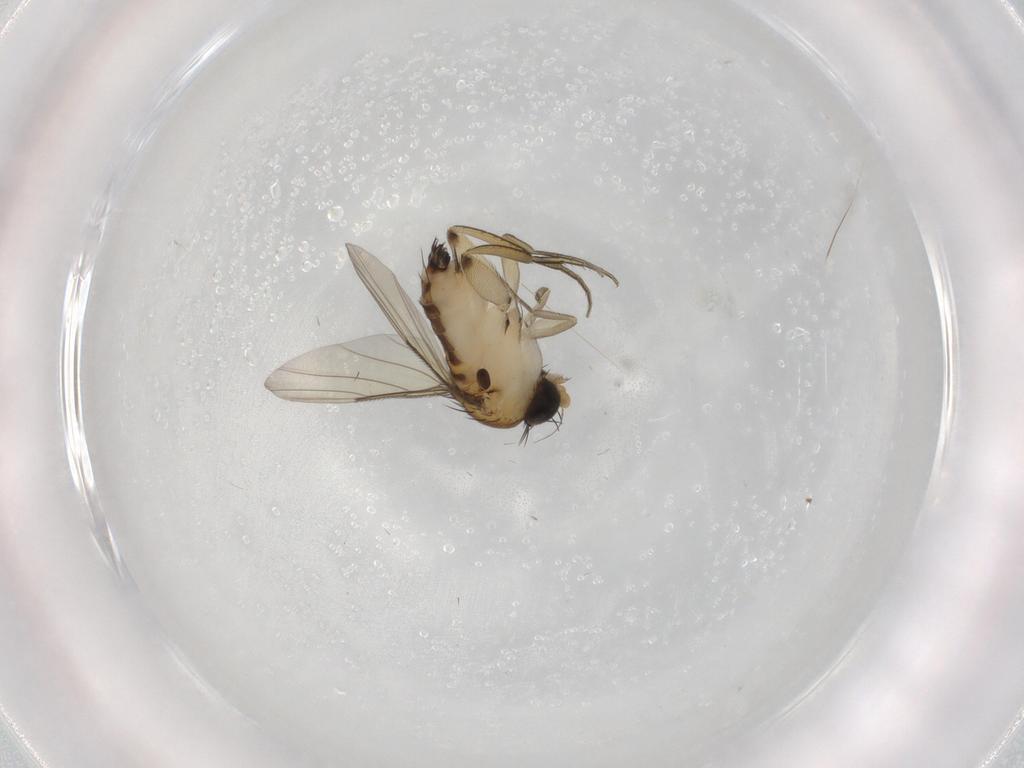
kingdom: Animalia
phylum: Arthropoda
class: Insecta
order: Diptera
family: Phoridae
